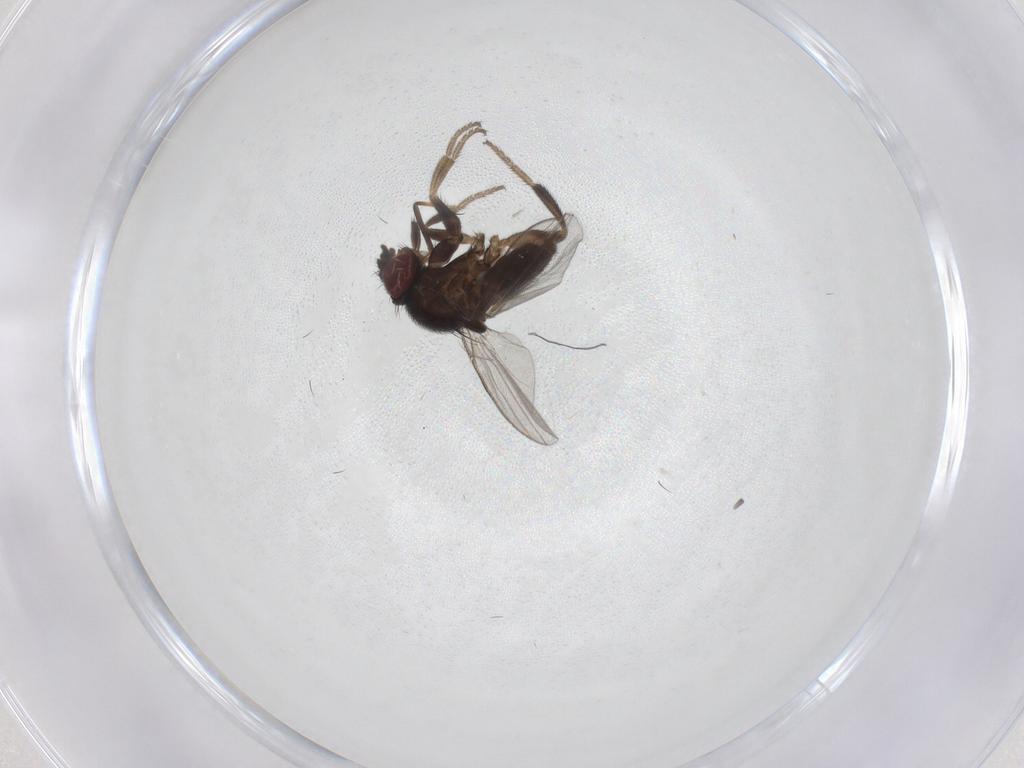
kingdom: Animalia
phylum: Arthropoda
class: Insecta
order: Diptera
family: Milichiidae
